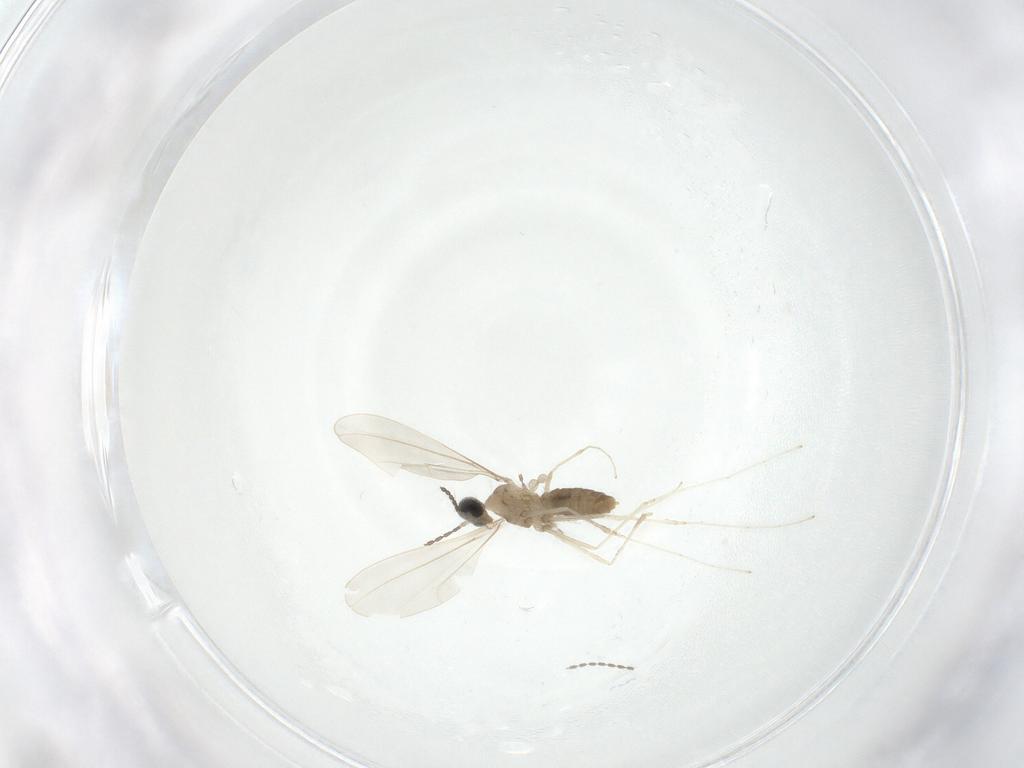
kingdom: Animalia
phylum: Arthropoda
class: Insecta
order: Diptera
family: Cecidomyiidae
